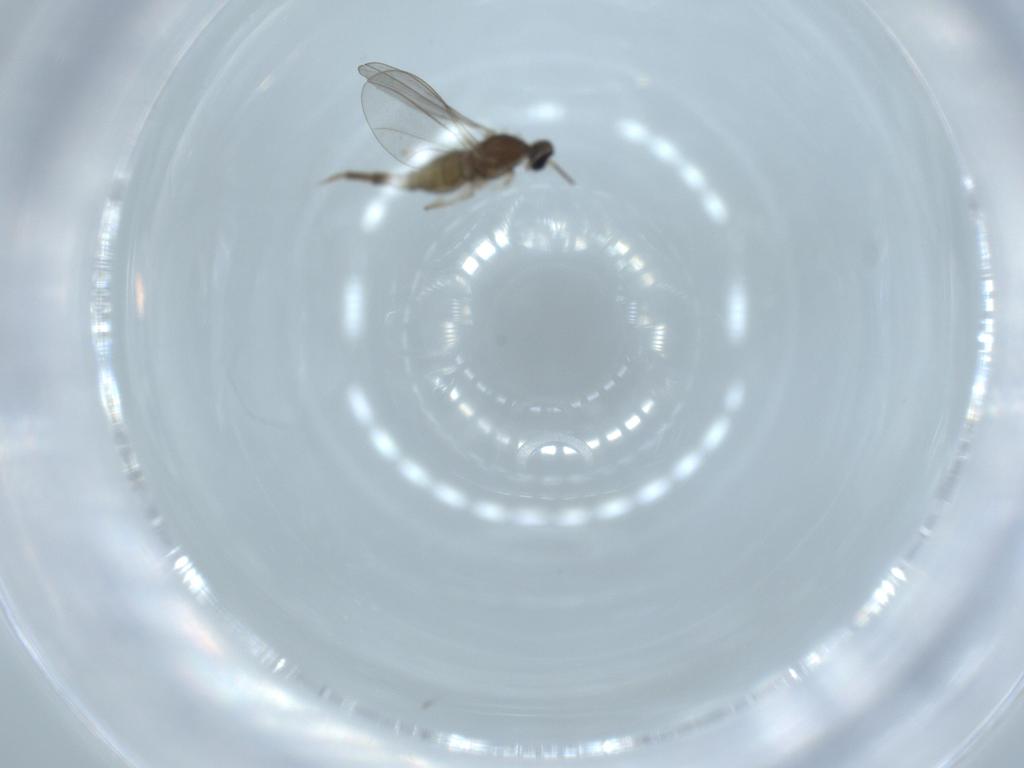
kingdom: Animalia
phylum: Arthropoda
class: Insecta
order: Diptera
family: Cecidomyiidae
